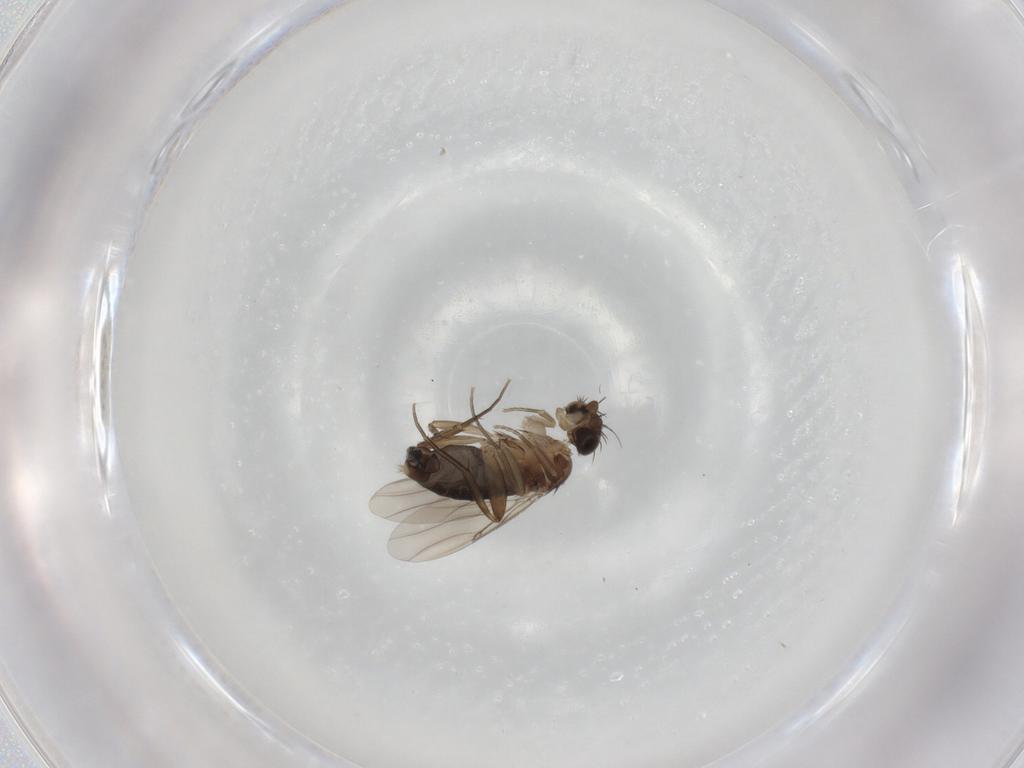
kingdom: Animalia
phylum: Arthropoda
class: Insecta
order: Diptera
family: Phoridae
